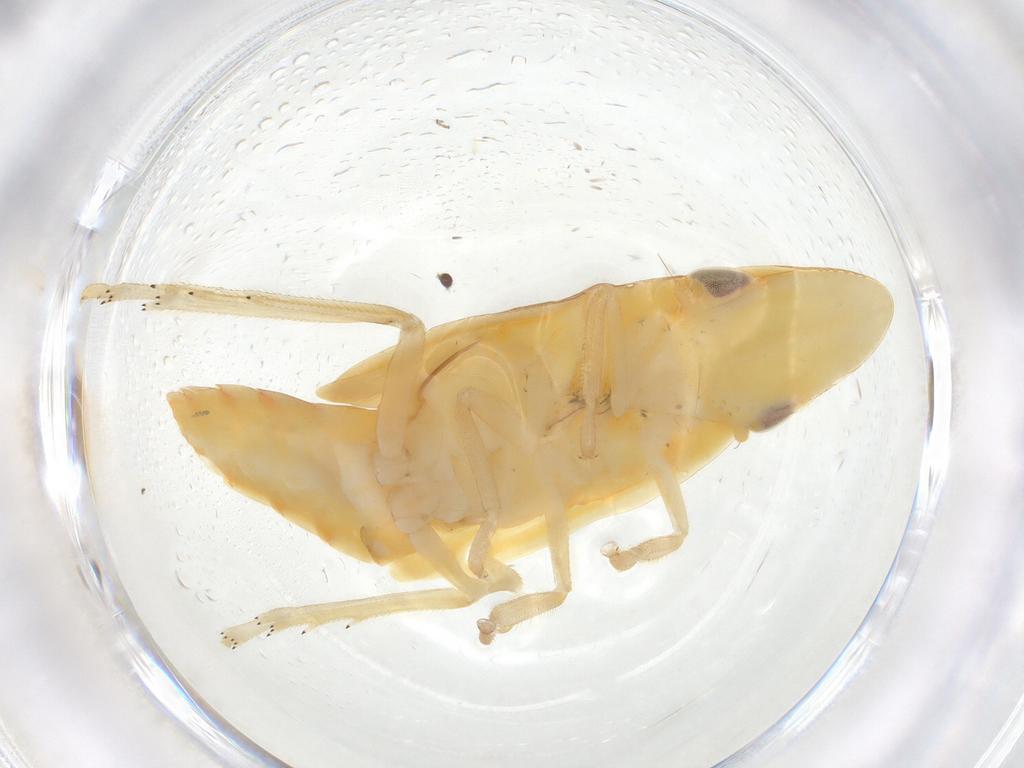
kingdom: Animalia
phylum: Arthropoda
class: Insecta
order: Hemiptera
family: Tropiduchidae
